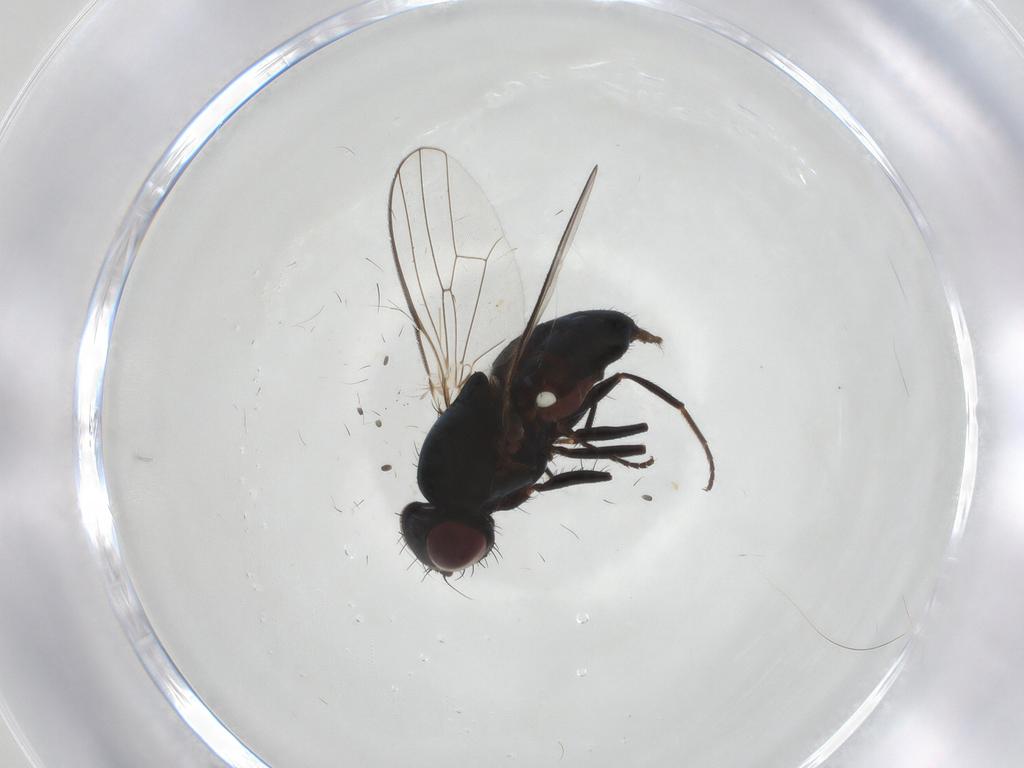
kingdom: Animalia
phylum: Arthropoda
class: Insecta
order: Diptera
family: Carnidae
